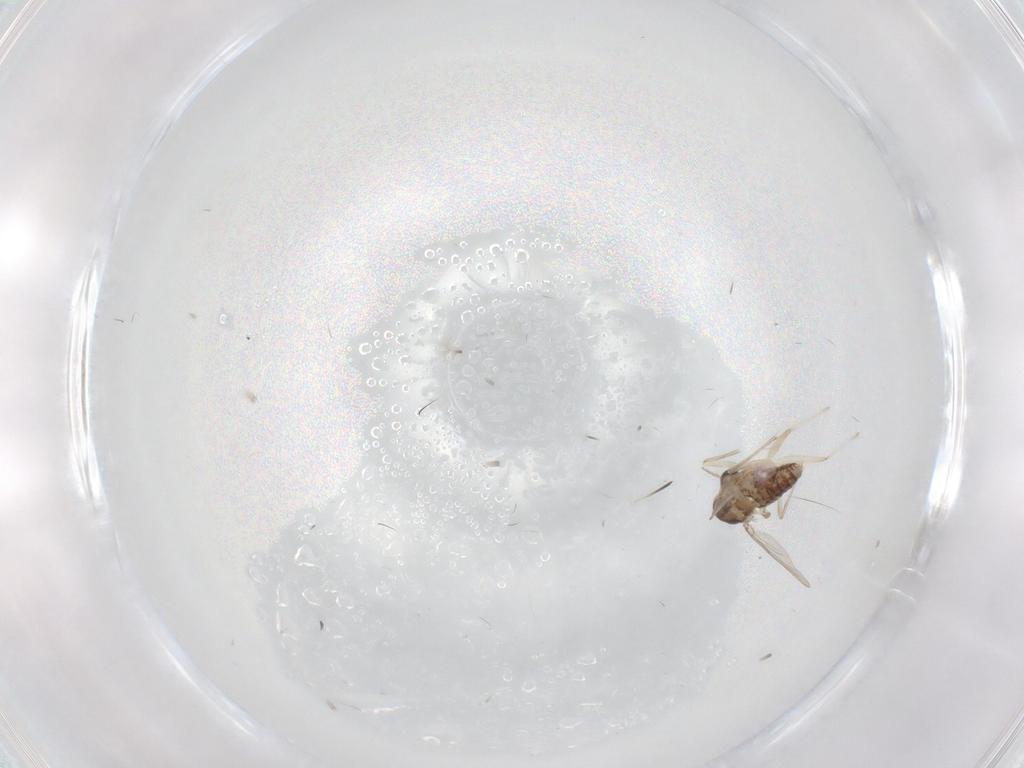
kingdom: Animalia
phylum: Arthropoda
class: Insecta
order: Diptera
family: Chironomidae
